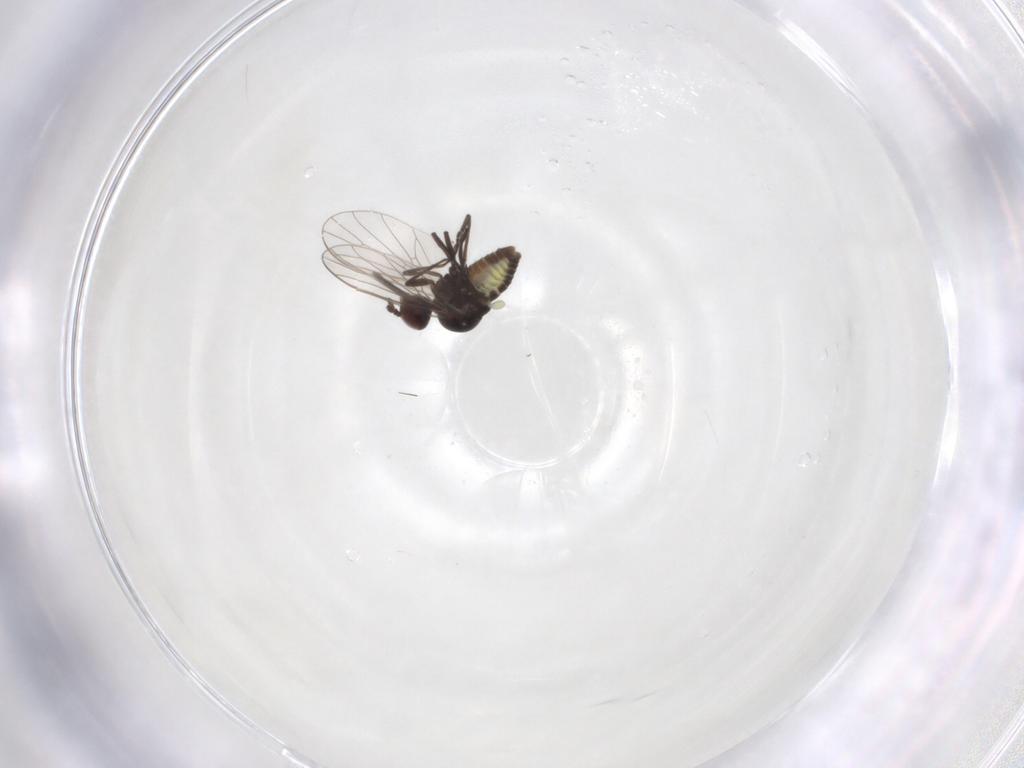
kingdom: Animalia
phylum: Arthropoda
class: Insecta
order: Diptera
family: Bombyliidae
